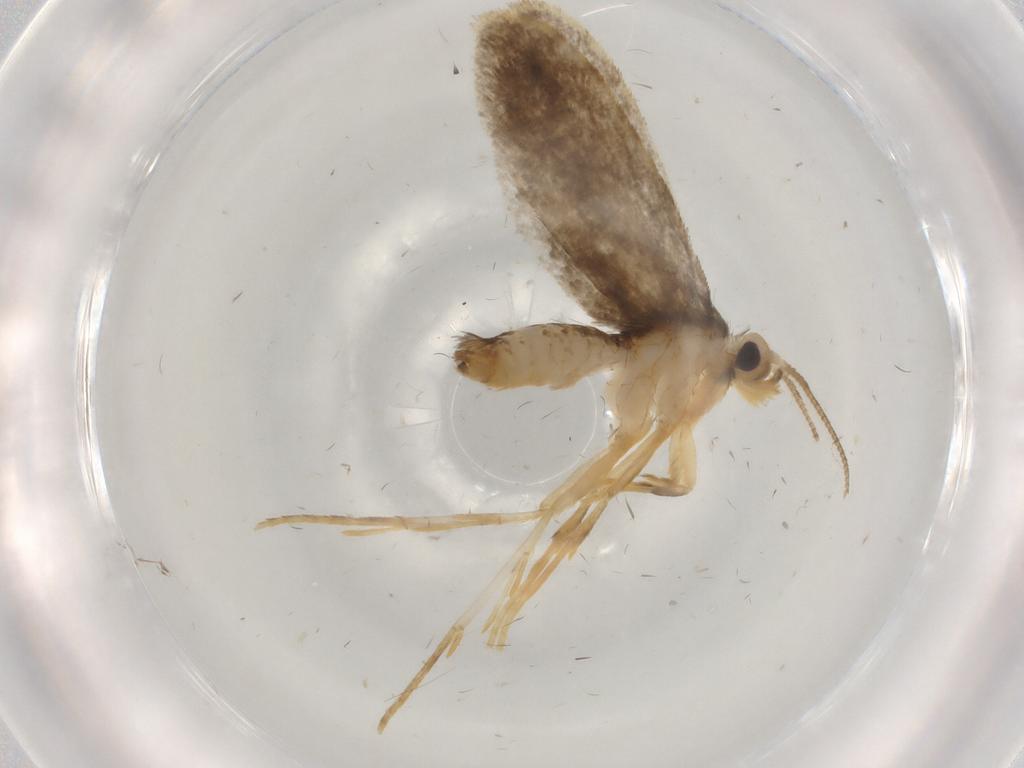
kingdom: Animalia
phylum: Arthropoda
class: Insecta
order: Lepidoptera
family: Psychidae
